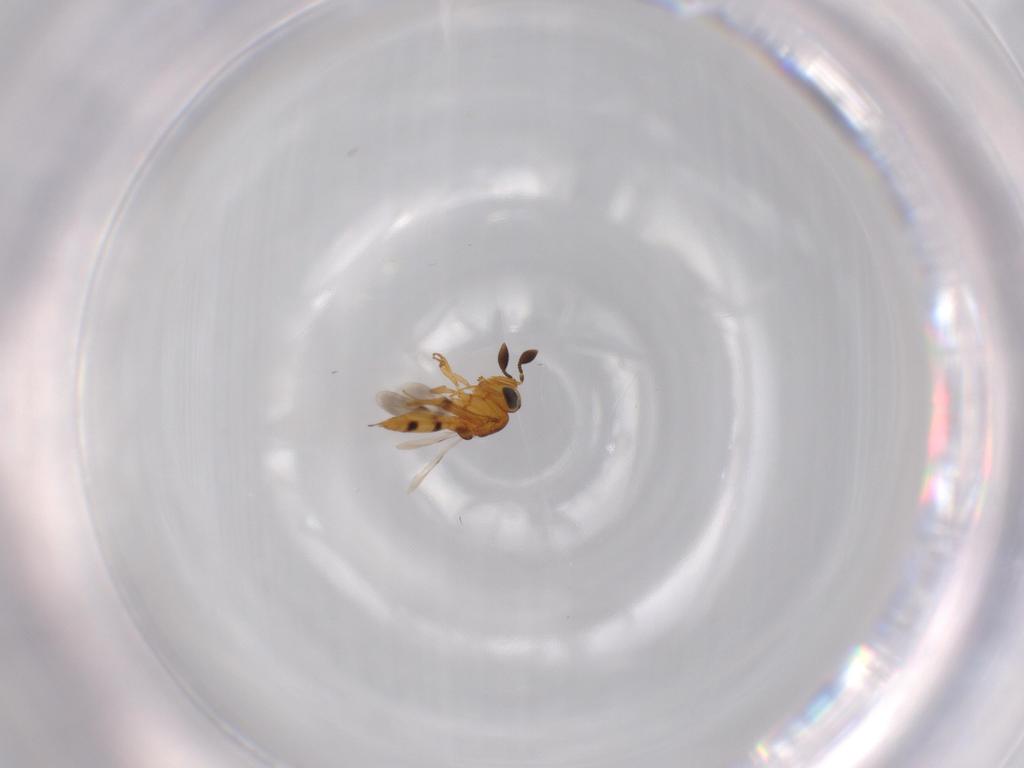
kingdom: Animalia
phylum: Arthropoda
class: Insecta
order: Hymenoptera
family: Scelionidae
